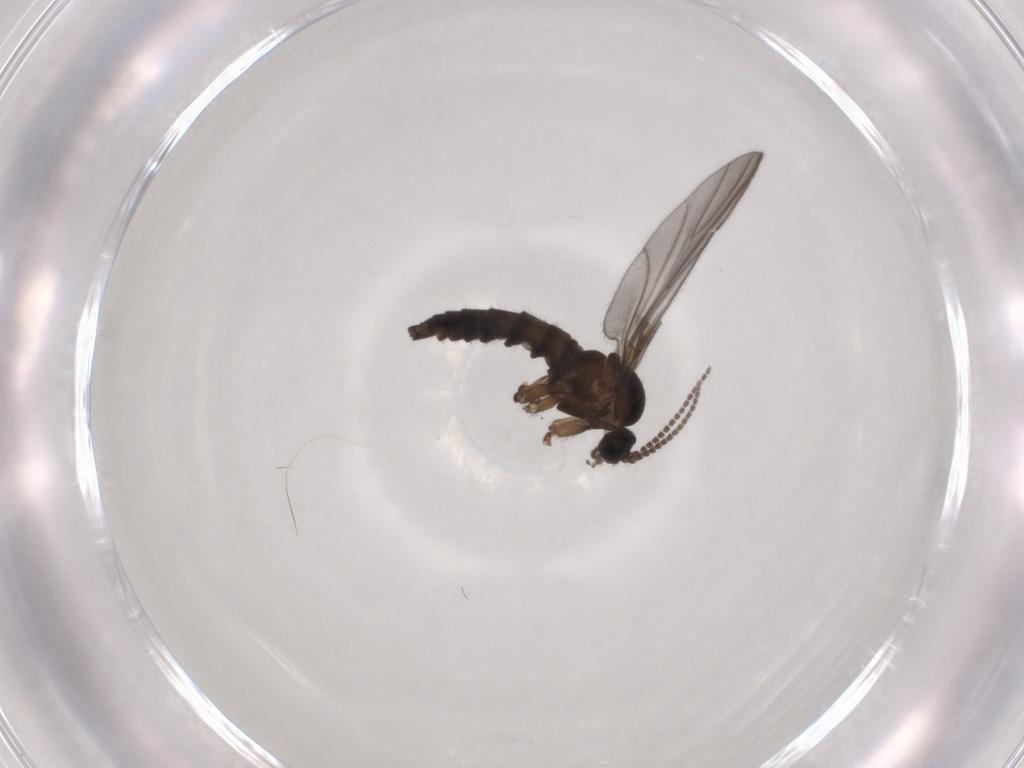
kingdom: Animalia
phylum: Arthropoda
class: Insecta
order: Diptera
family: Sciaridae
